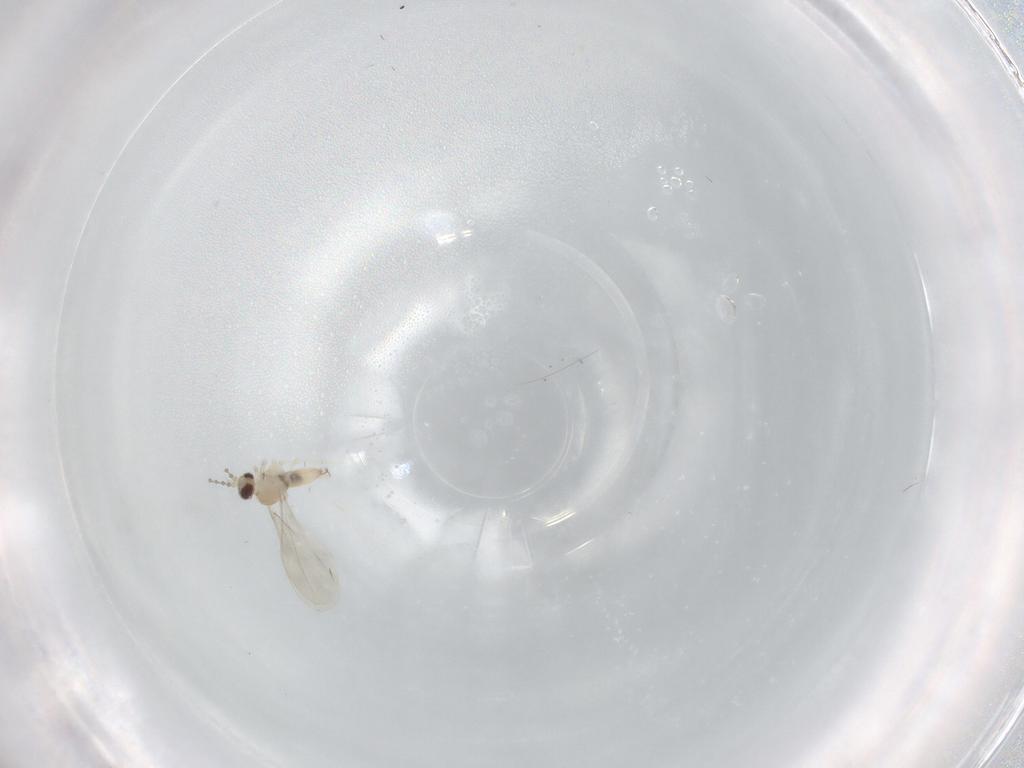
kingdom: Animalia
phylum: Arthropoda
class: Insecta
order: Diptera
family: Cecidomyiidae
